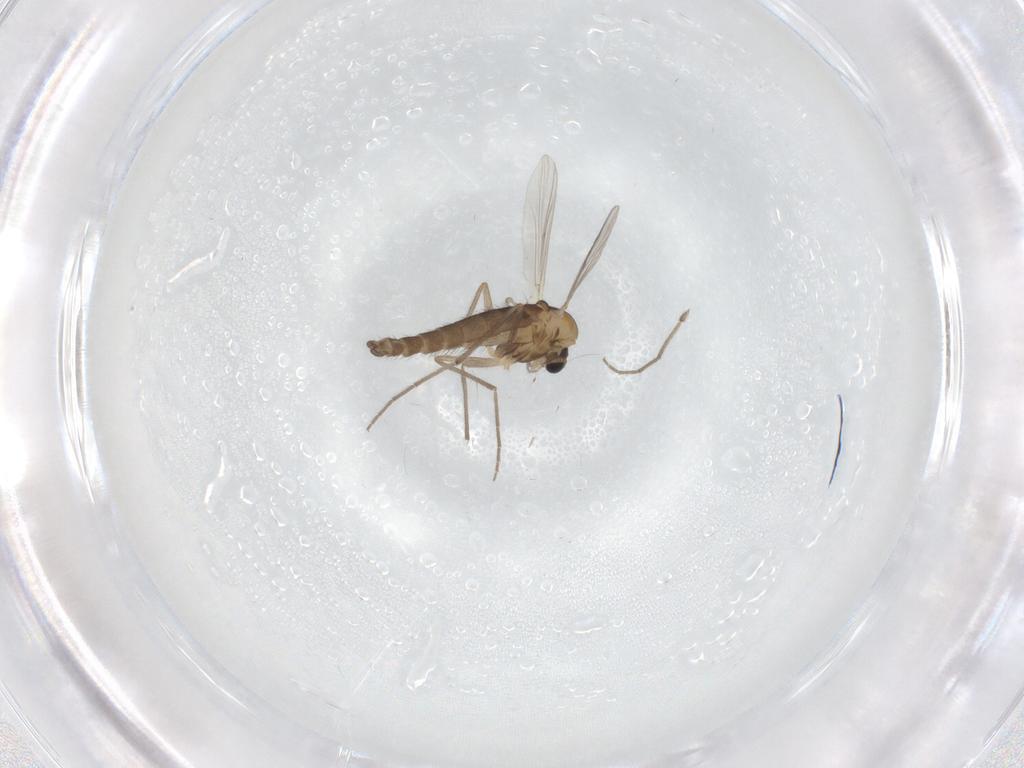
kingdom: Animalia
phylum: Arthropoda
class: Insecta
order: Diptera
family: Chironomidae
